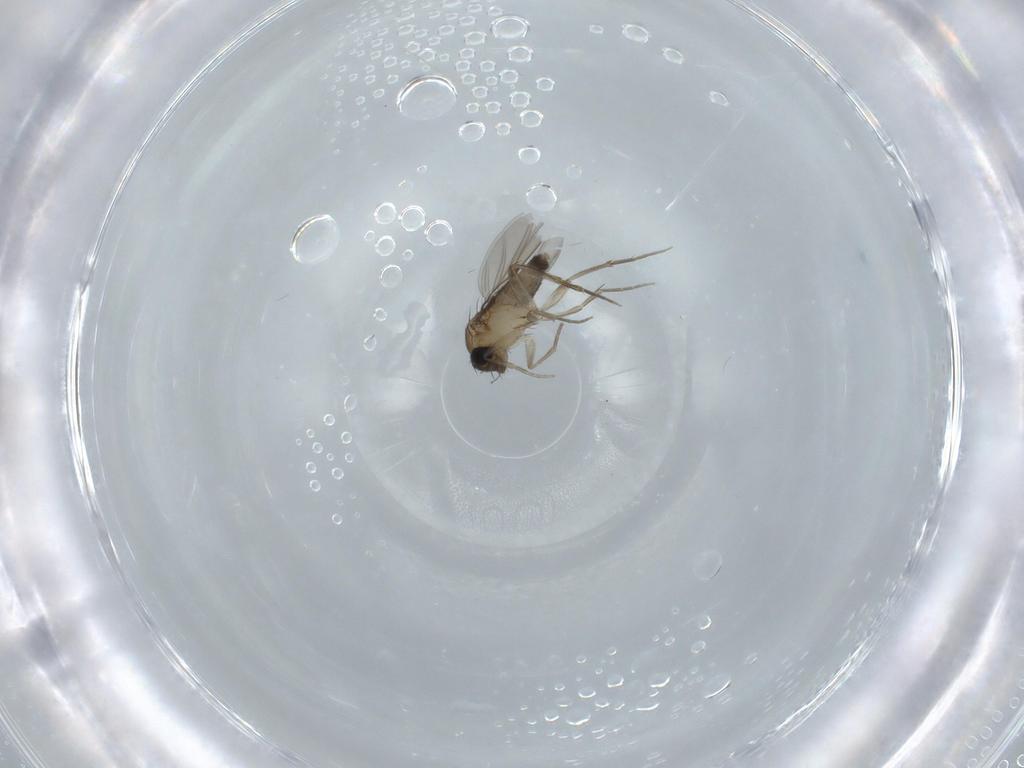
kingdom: Animalia
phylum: Arthropoda
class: Insecta
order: Diptera
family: Phoridae
